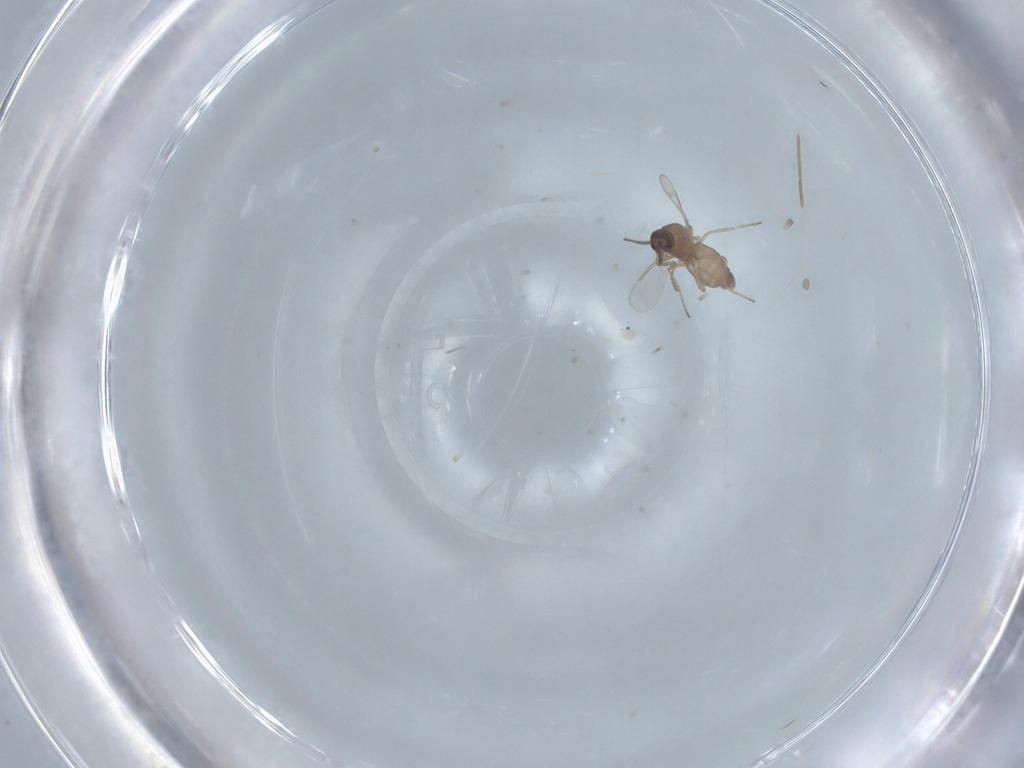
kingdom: Animalia
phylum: Arthropoda
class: Insecta
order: Diptera
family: Ceratopogonidae
